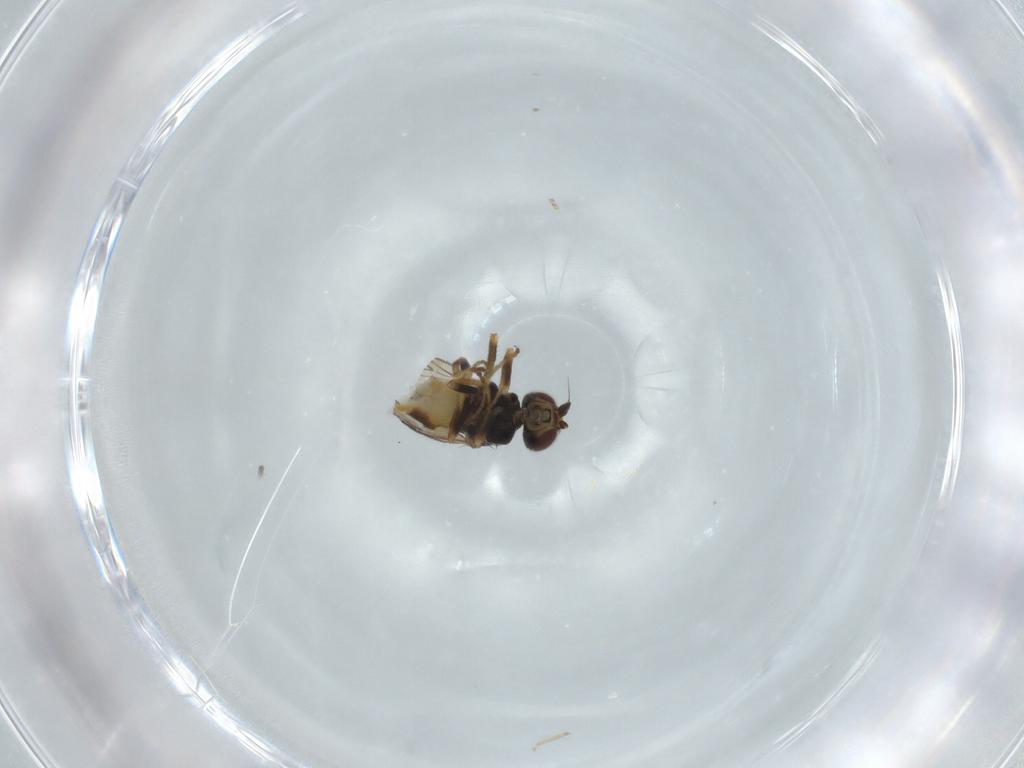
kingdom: Animalia
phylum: Arthropoda
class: Insecta
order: Diptera
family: Chloropidae
